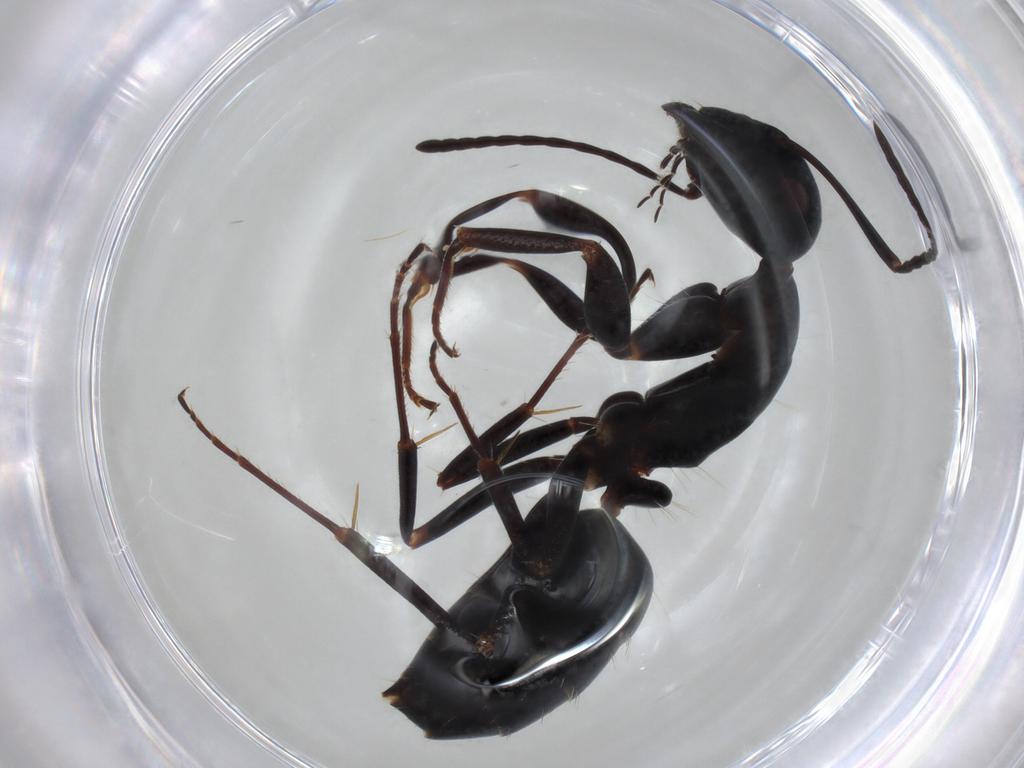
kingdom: Animalia
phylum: Arthropoda
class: Insecta
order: Hymenoptera
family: Formicidae
